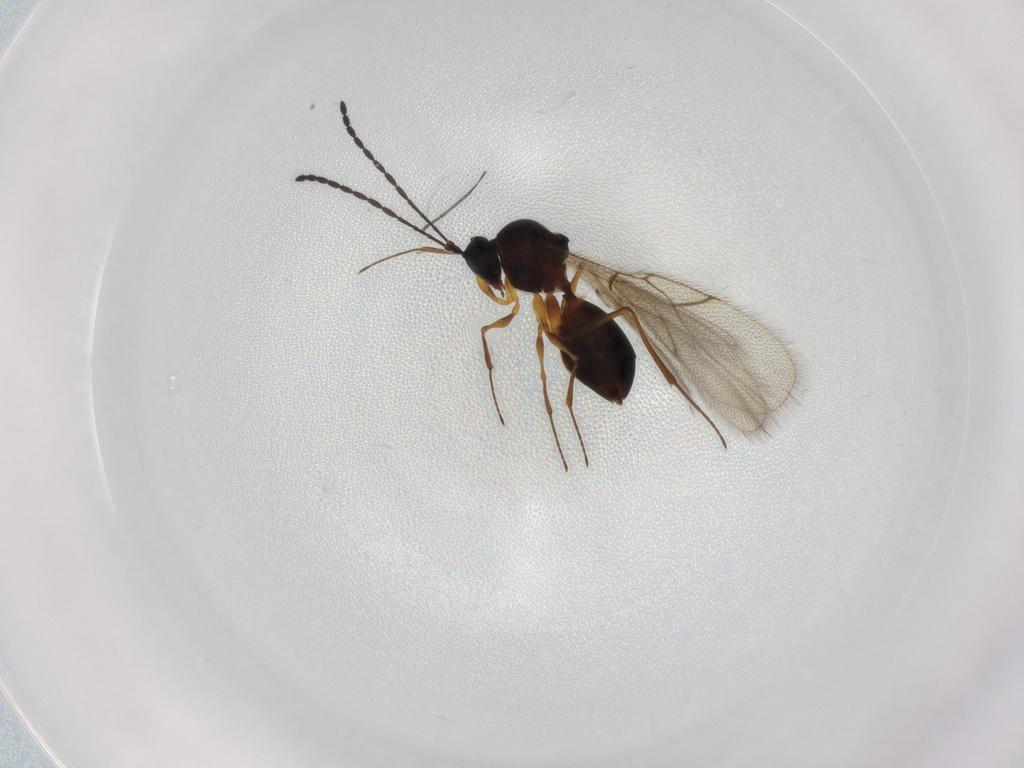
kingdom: Animalia
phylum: Arthropoda
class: Insecta
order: Hymenoptera
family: Figitidae
